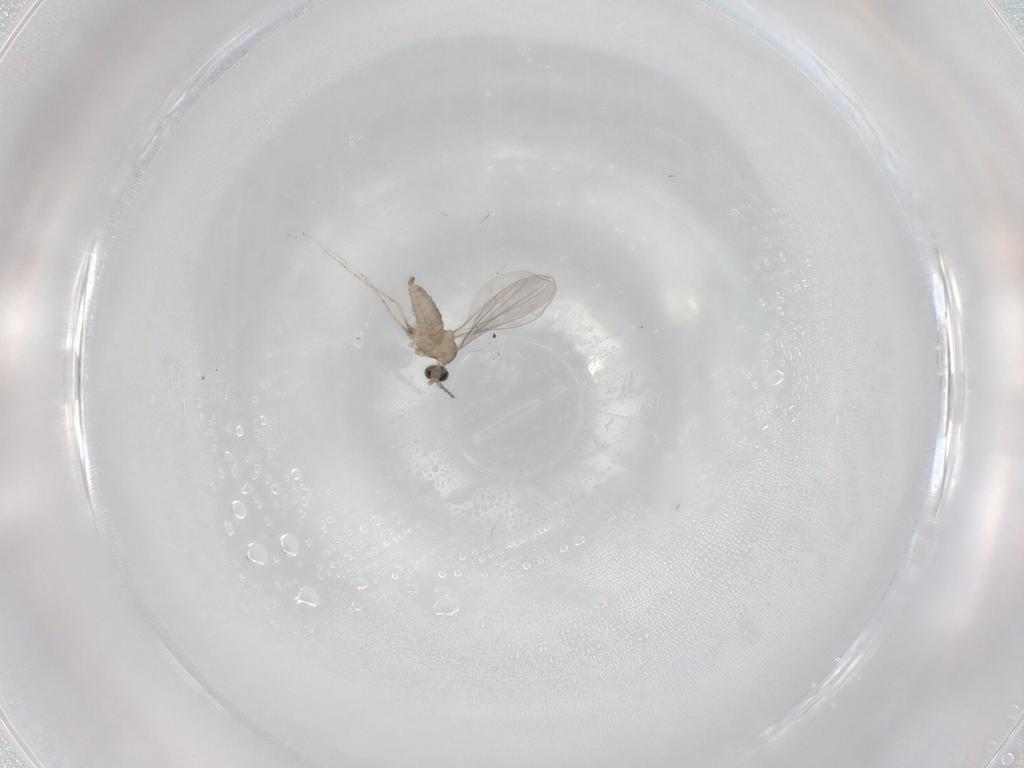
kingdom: Animalia
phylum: Arthropoda
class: Insecta
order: Diptera
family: Cecidomyiidae
